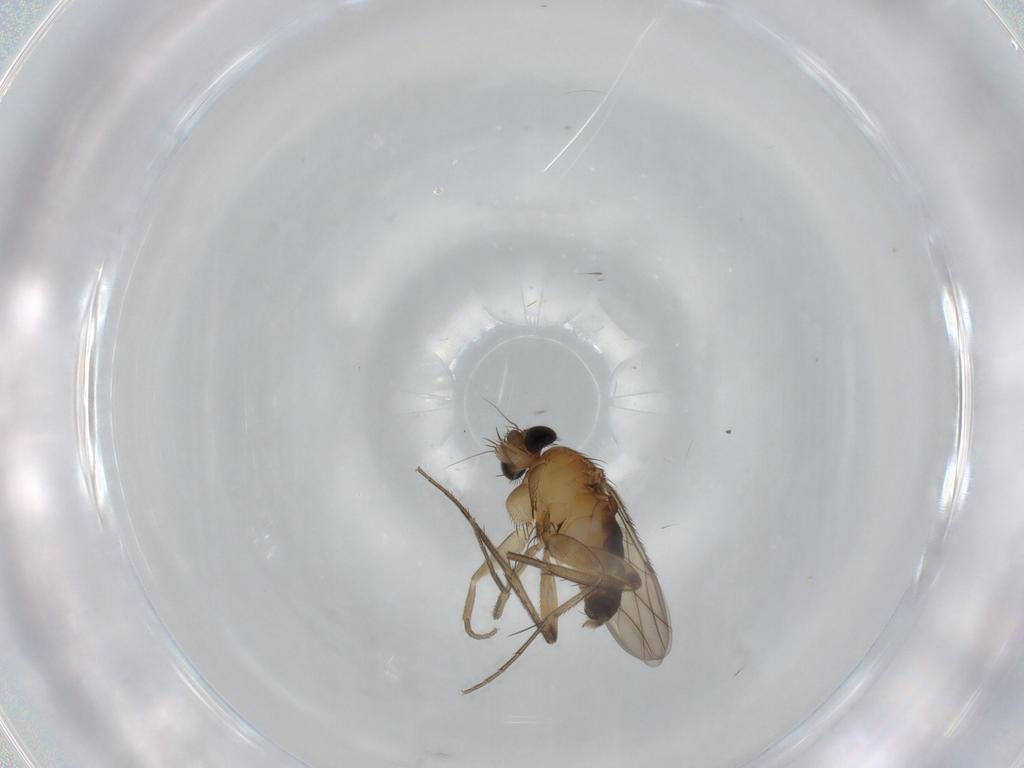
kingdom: Animalia
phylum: Arthropoda
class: Insecta
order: Diptera
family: Phoridae
